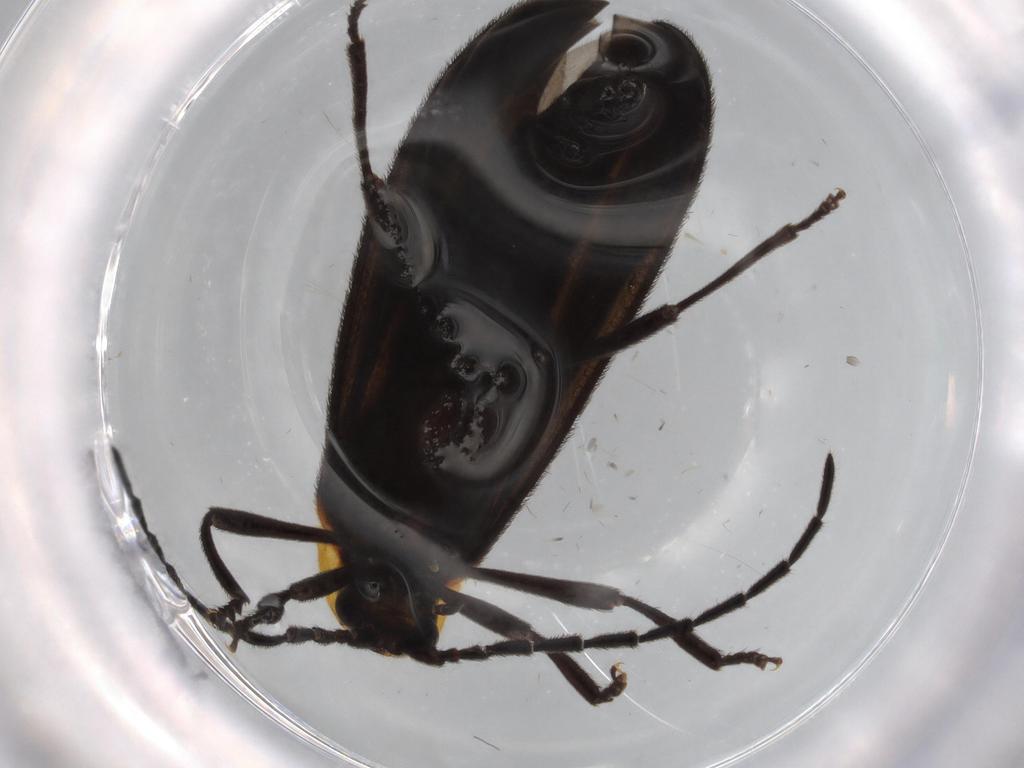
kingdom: Animalia
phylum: Arthropoda
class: Insecta
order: Coleoptera
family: Lycidae
